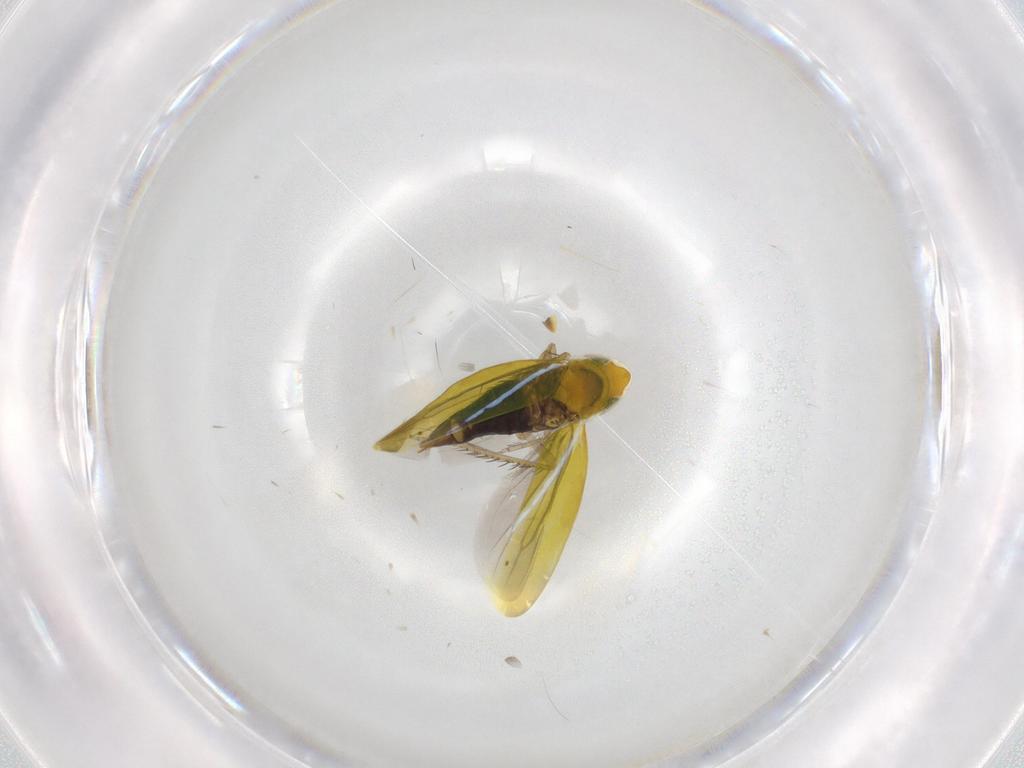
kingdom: Animalia
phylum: Arthropoda
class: Insecta
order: Hemiptera
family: Cicadellidae
